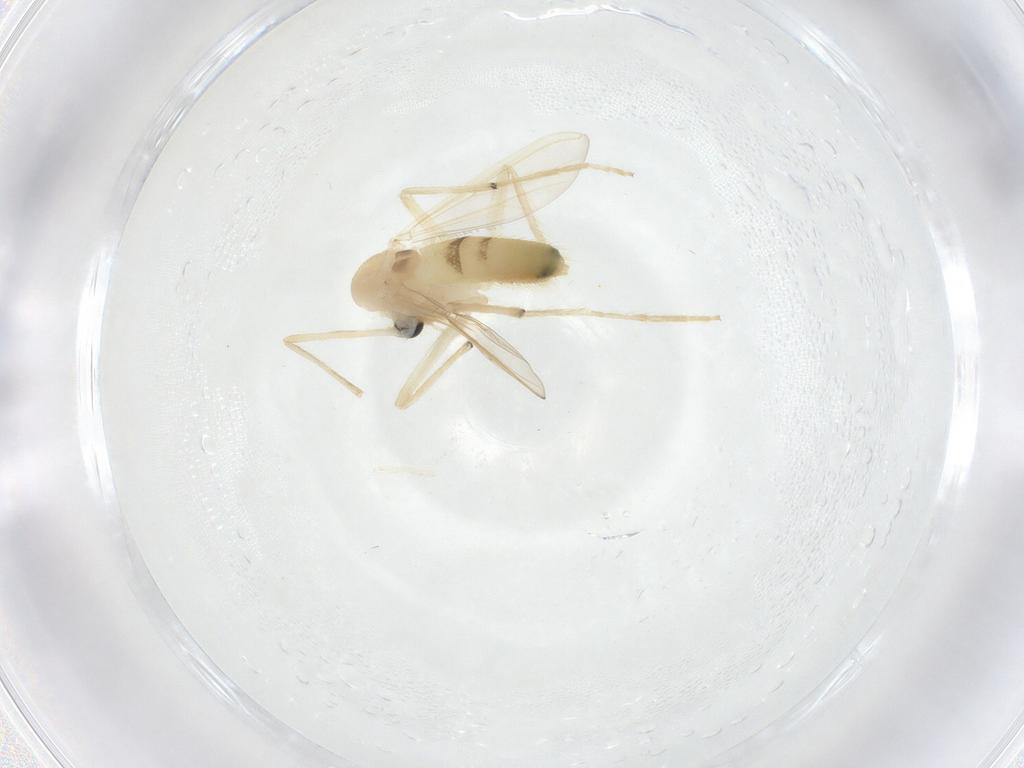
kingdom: Animalia
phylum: Arthropoda
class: Insecta
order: Diptera
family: Chironomidae
